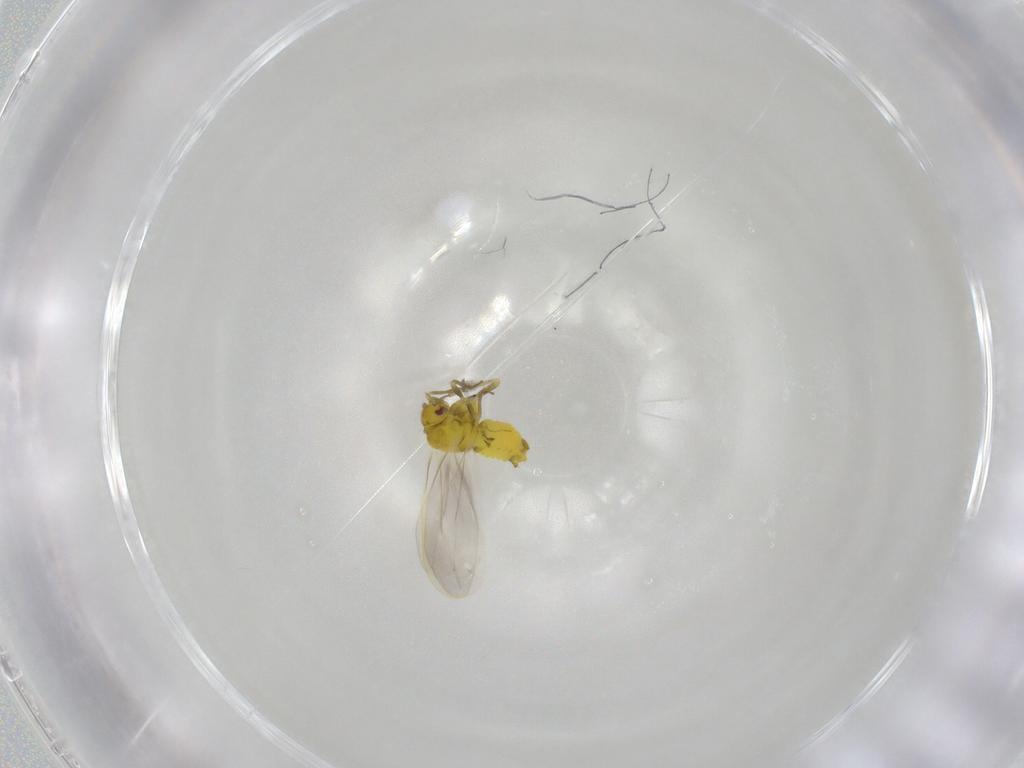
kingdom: Animalia
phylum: Arthropoda
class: Insecta
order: Hemiptera
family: Aleyrodidae
